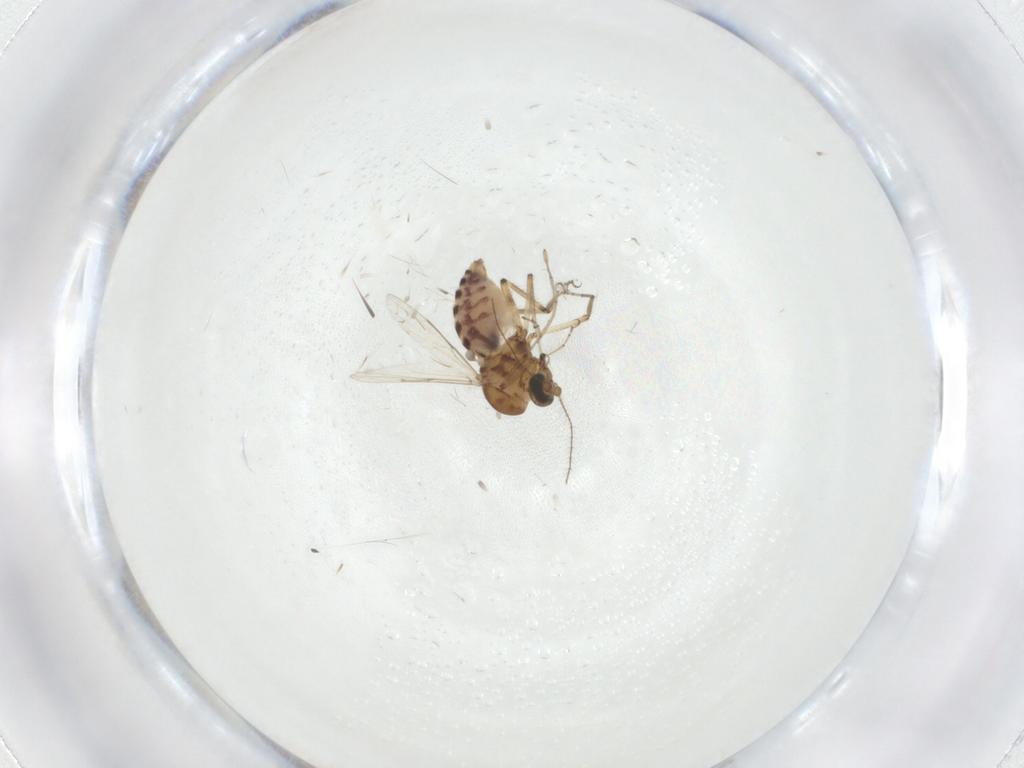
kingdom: Animalia
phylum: Arthropoda
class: Insecta
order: Diptera
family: Ceratopogonidae
